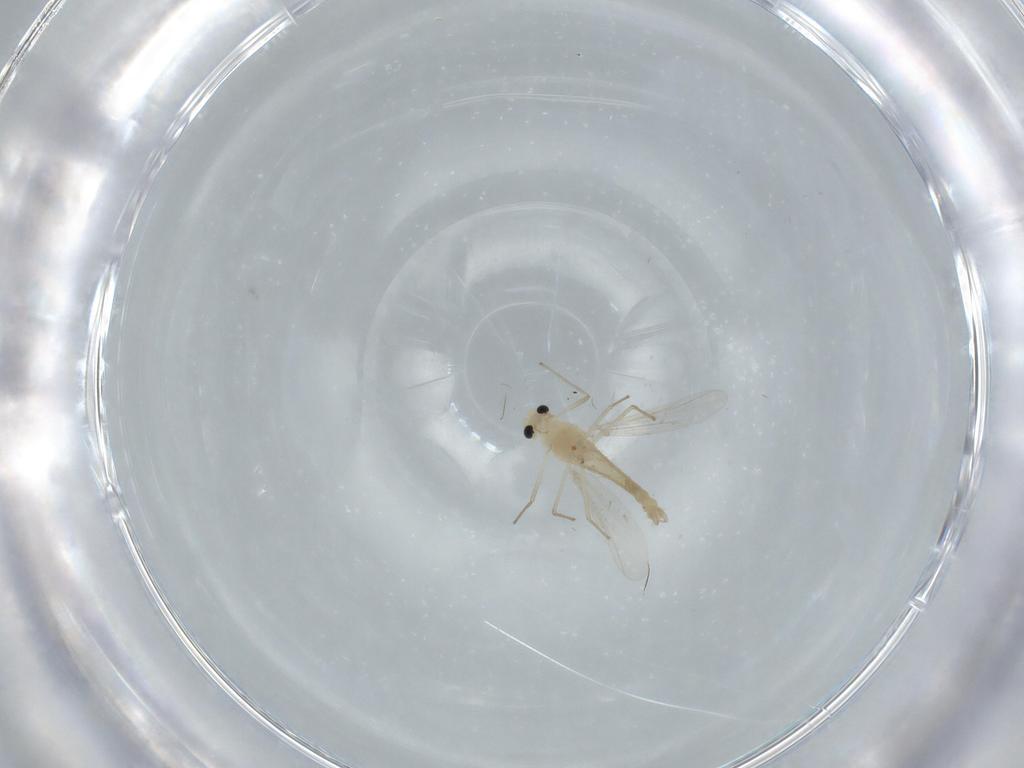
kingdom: Animalia
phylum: Arthropoda
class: Insecta
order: Diptera
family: Chironomidae
